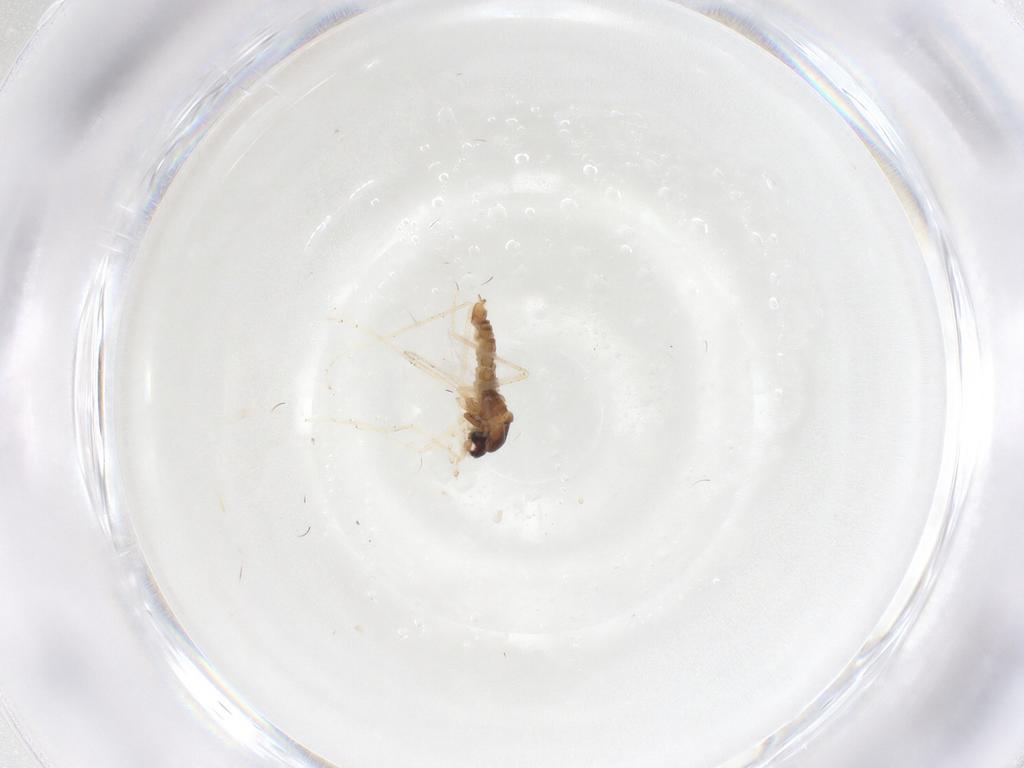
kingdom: Animalia
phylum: Arthropoda
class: Insecta
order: Diptera
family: Cecidomyiidae
